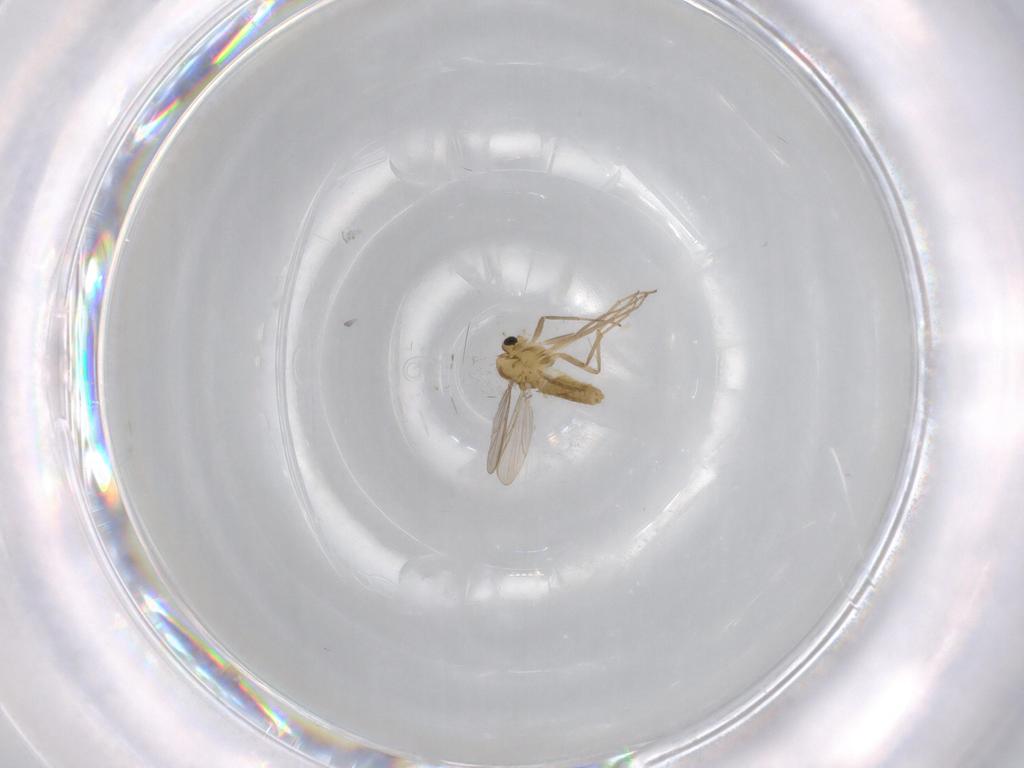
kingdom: Animalia
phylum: Arthropoda
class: Insecta
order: Diptera
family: Chironomidae
